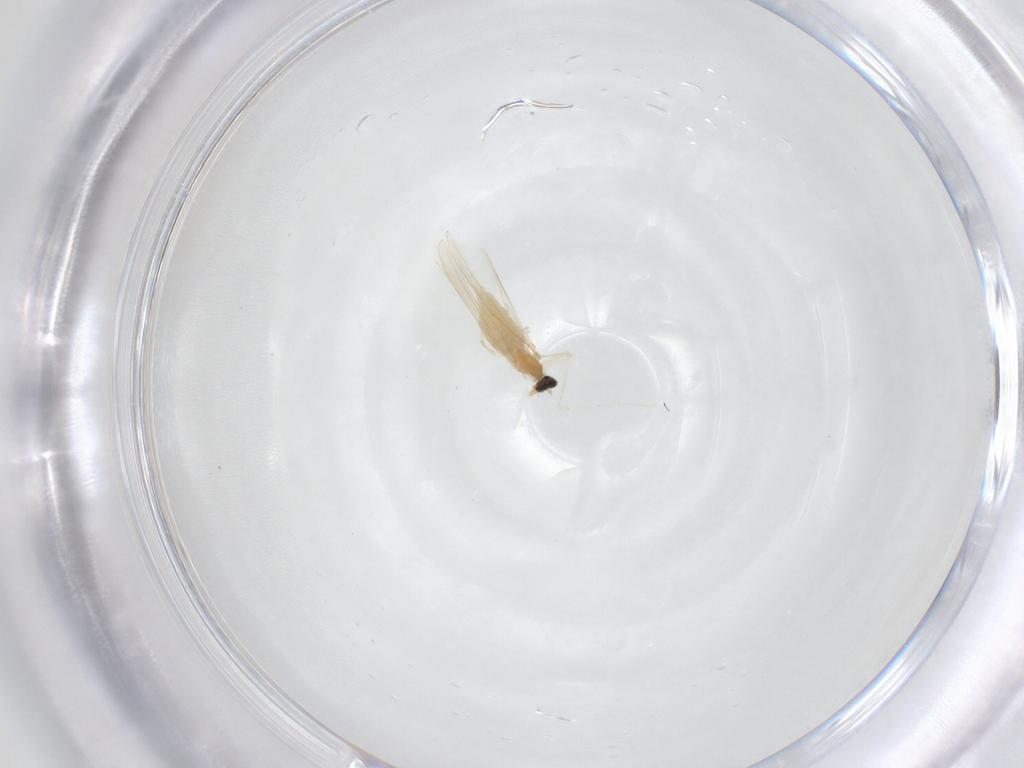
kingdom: Animalia
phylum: Arthropoda
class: Insecta
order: Diptera
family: Cecidomyiidae
